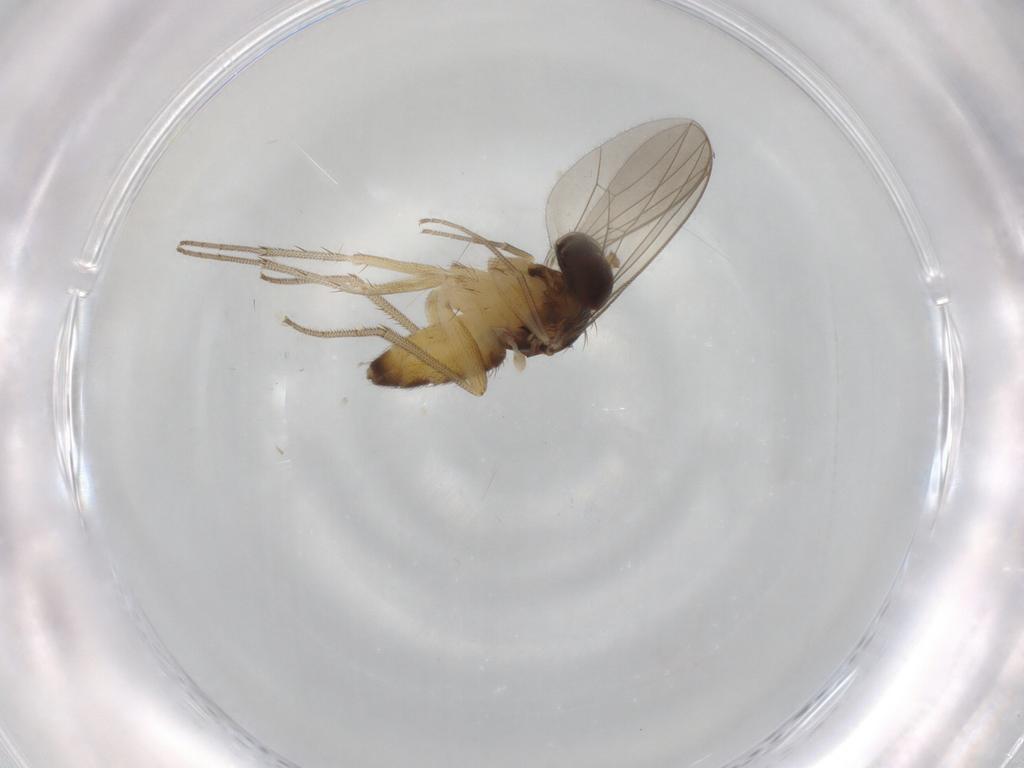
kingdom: Animalia
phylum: Arthropoda
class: Insecta
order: Diptera
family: Dolichopodidae
